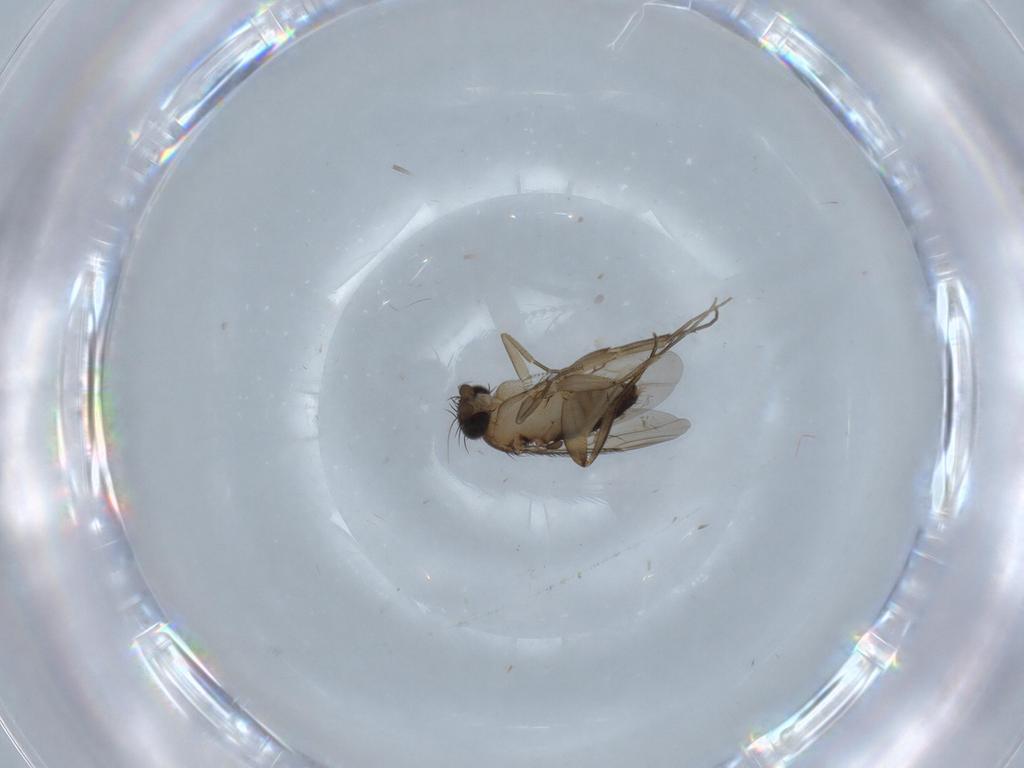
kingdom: Animalia
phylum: Arthropoda
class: Insecta
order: Diptera
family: Phoridae
